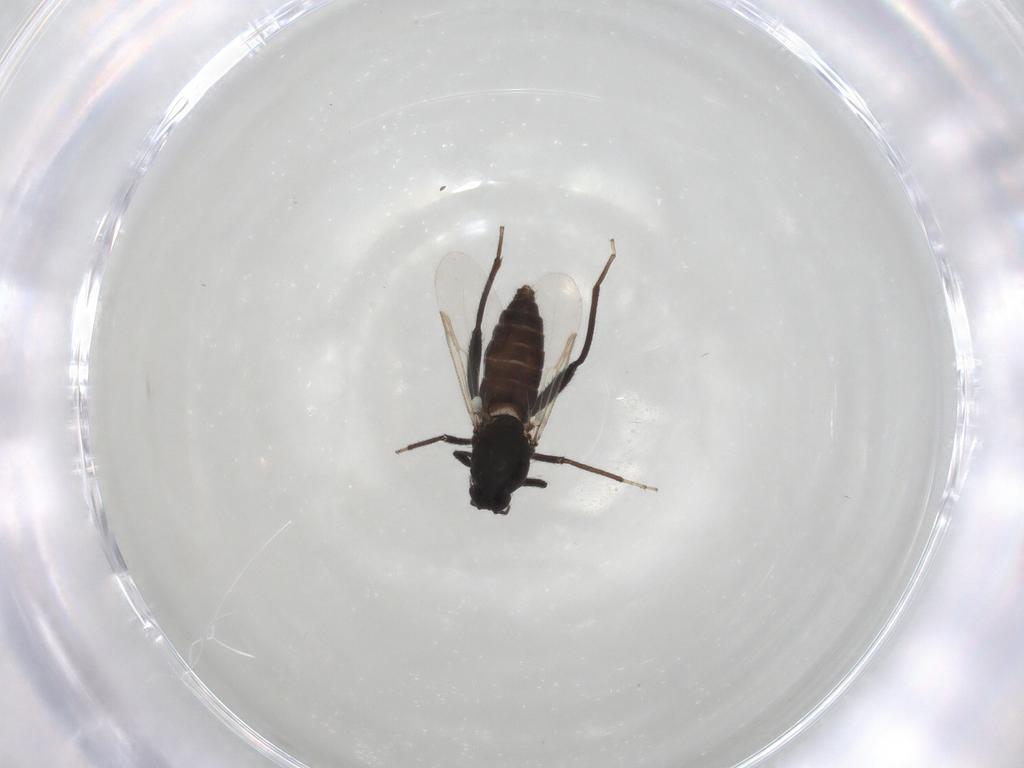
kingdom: Animalia
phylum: Arthropoda
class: Insecta
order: Diptera
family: Ceratopogonidae
